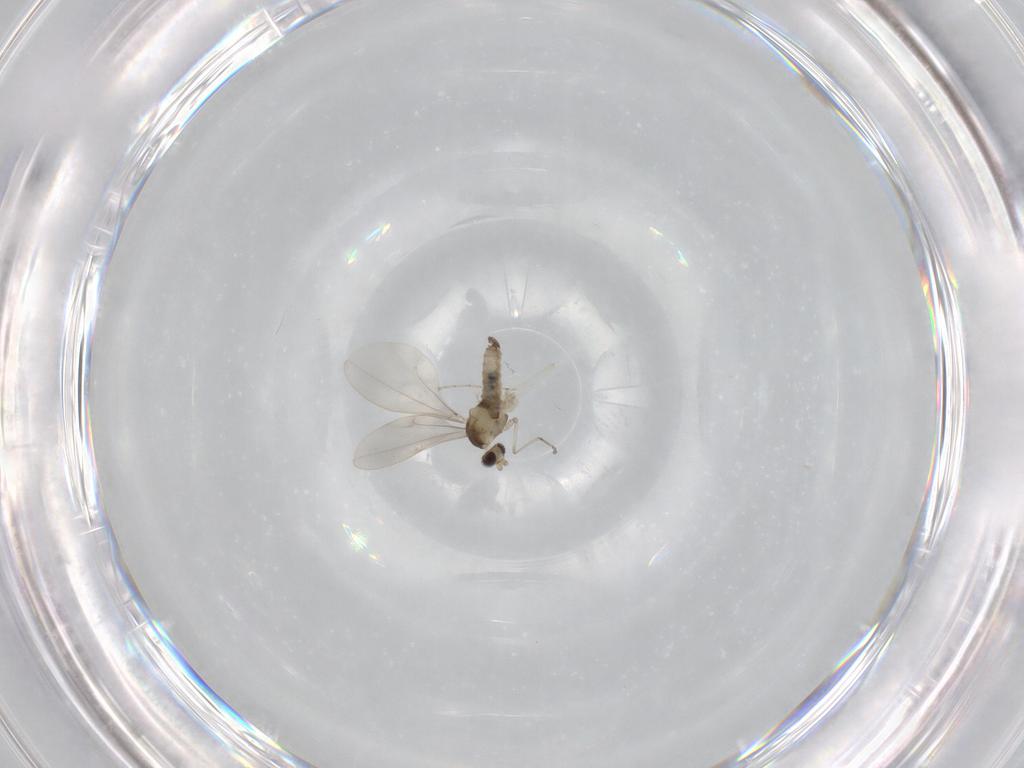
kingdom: Animalia
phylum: Arthropoda
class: Insecta
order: Diptera
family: Cecidomyiidae
